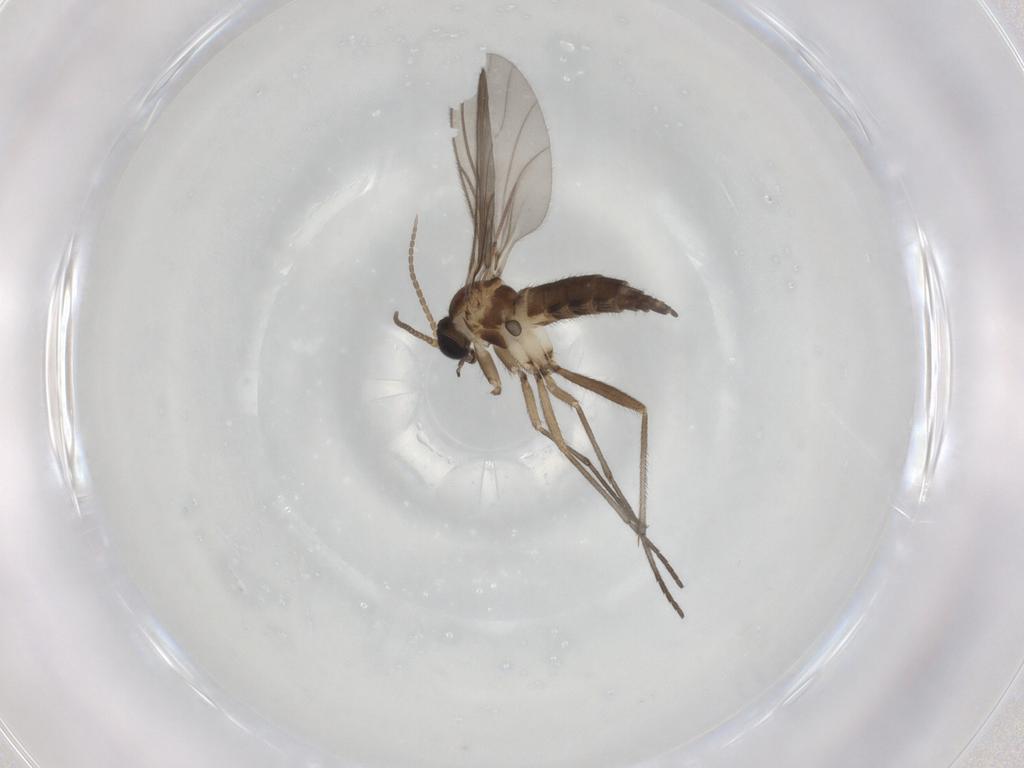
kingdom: Animalia
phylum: Arthropoda
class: Insecta
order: Diptera
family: Sciaridae
